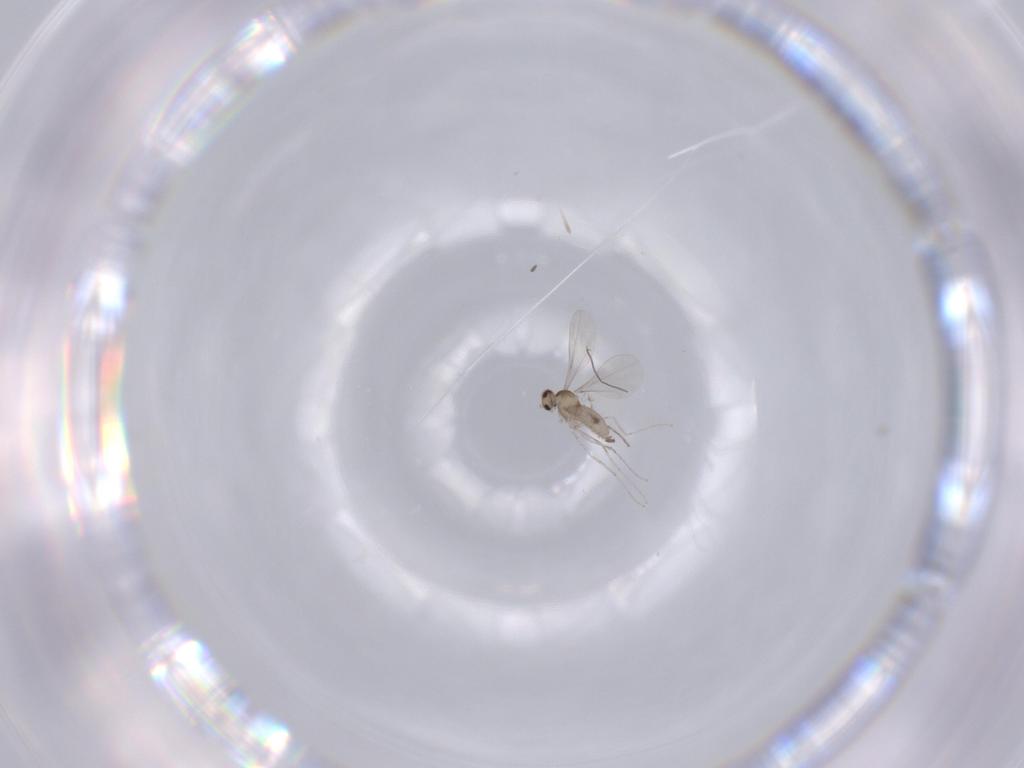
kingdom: Animalia
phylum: Arthropoda
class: Insecta
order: Diptera
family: Cecidomyiidae
